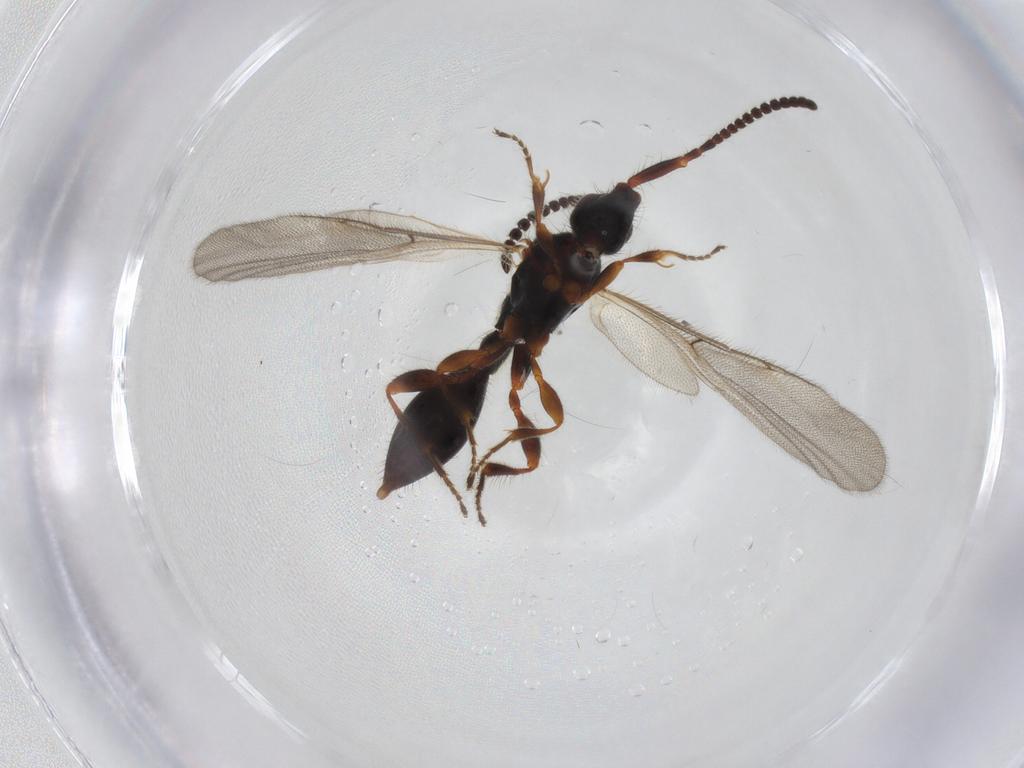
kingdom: Animalia
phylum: Arthropoda
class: Insecta
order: Hymenoptera
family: Diapriidae
